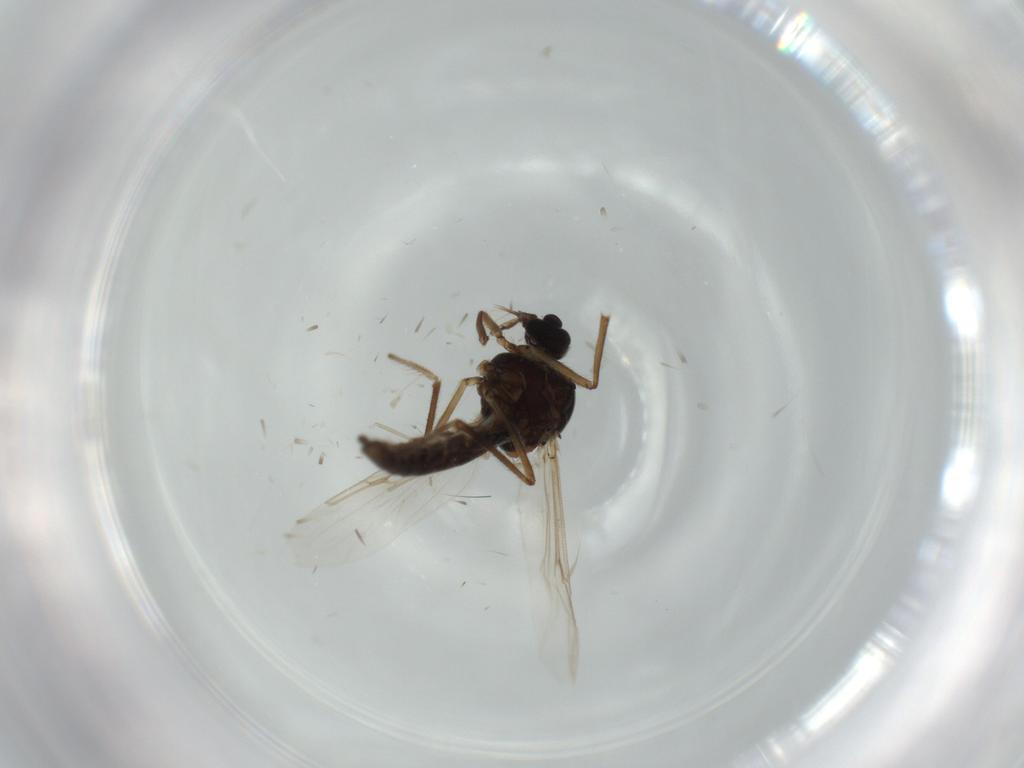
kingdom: Animalia
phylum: Arthropoda
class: Insecta
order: Diptera
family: Ceratopogonidae
